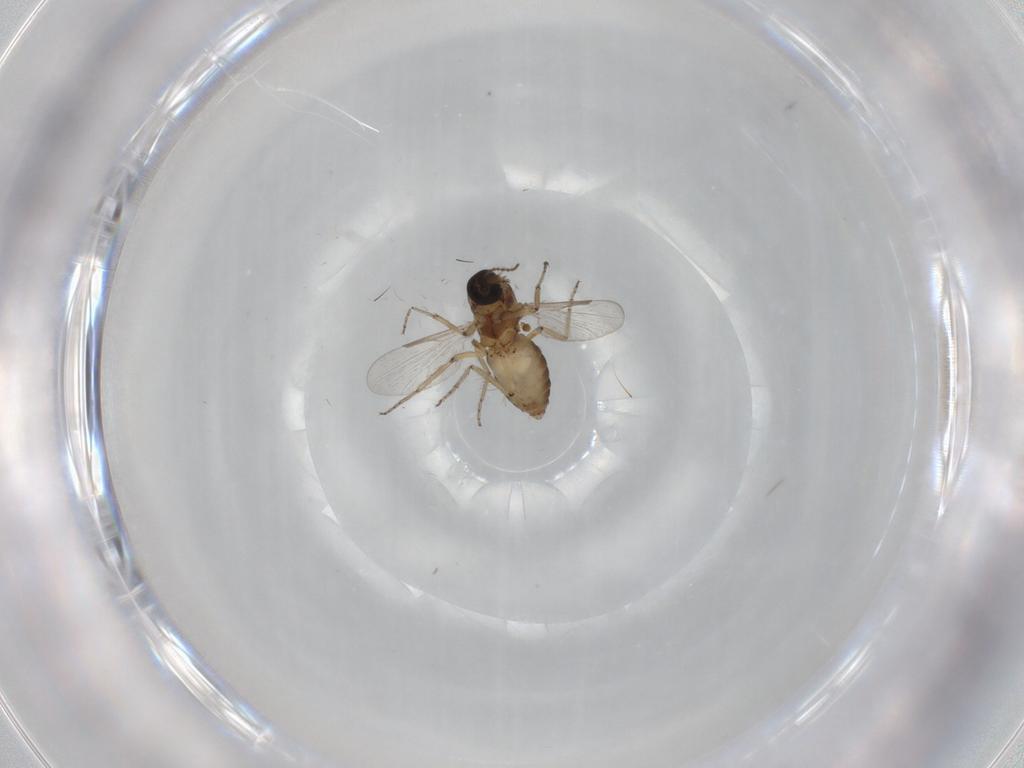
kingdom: Animalia
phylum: Arthropoda
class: Insecta
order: Diptera
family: Ceratopogonidae
